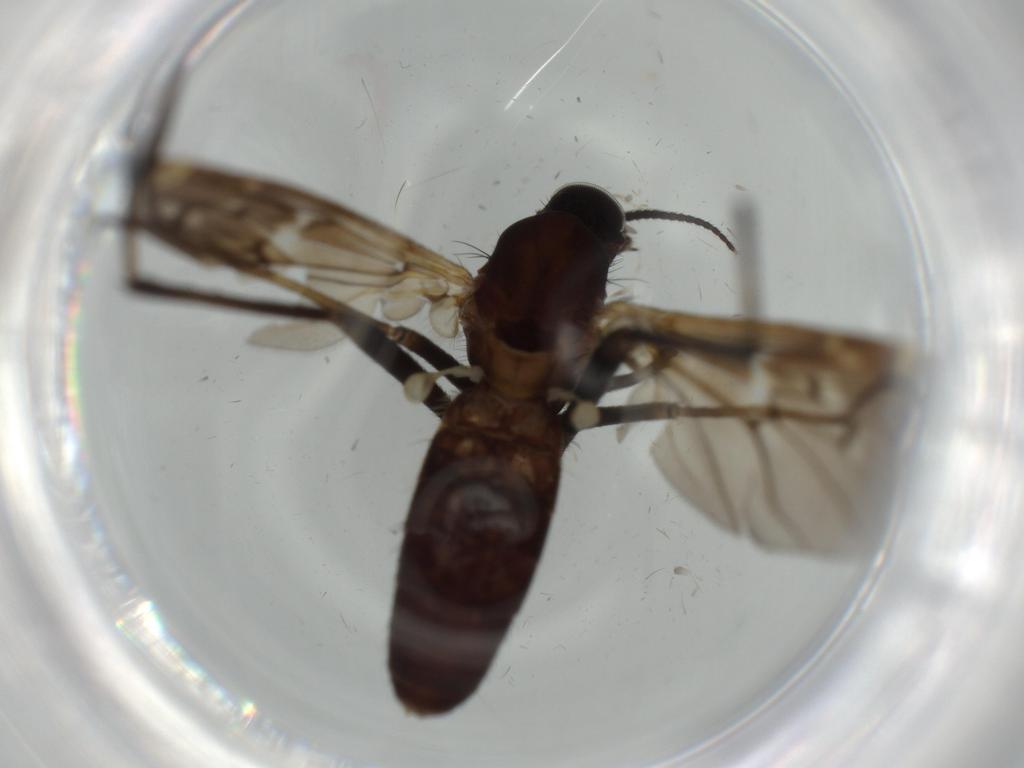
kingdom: Animalia
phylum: Arthropoda
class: Insecta
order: Diptera
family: Sciaridae
